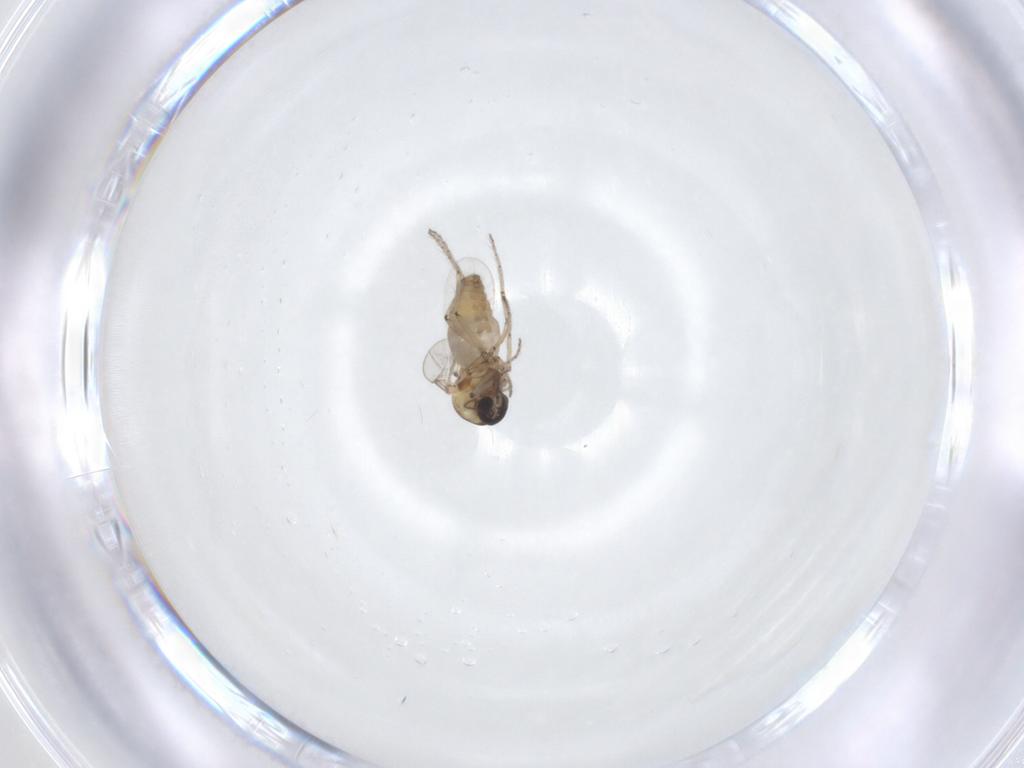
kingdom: Animalia
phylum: Arthropoda
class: Insecta
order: Diptera
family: Ceratopogonidae
